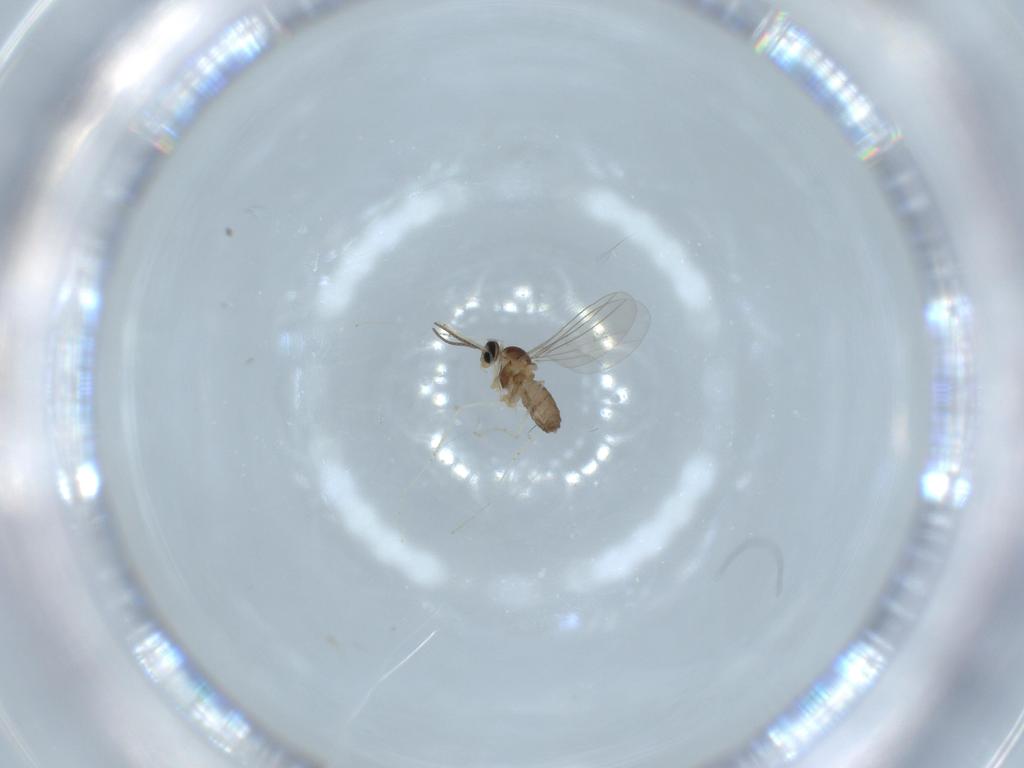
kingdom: Animalia
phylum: Arthropoda
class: Insecta
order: Diptera
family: Cecidomyiidae
